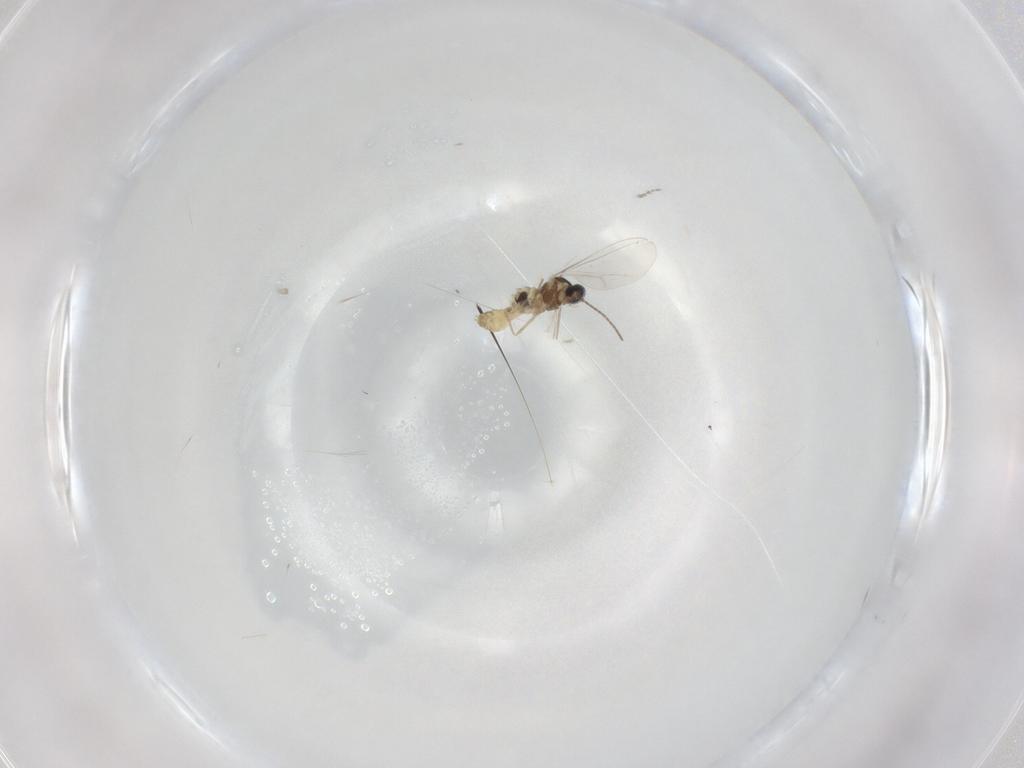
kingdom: Animalia
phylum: Arthropoda
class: Insecta
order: Diptera
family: Cecidomyiidae
